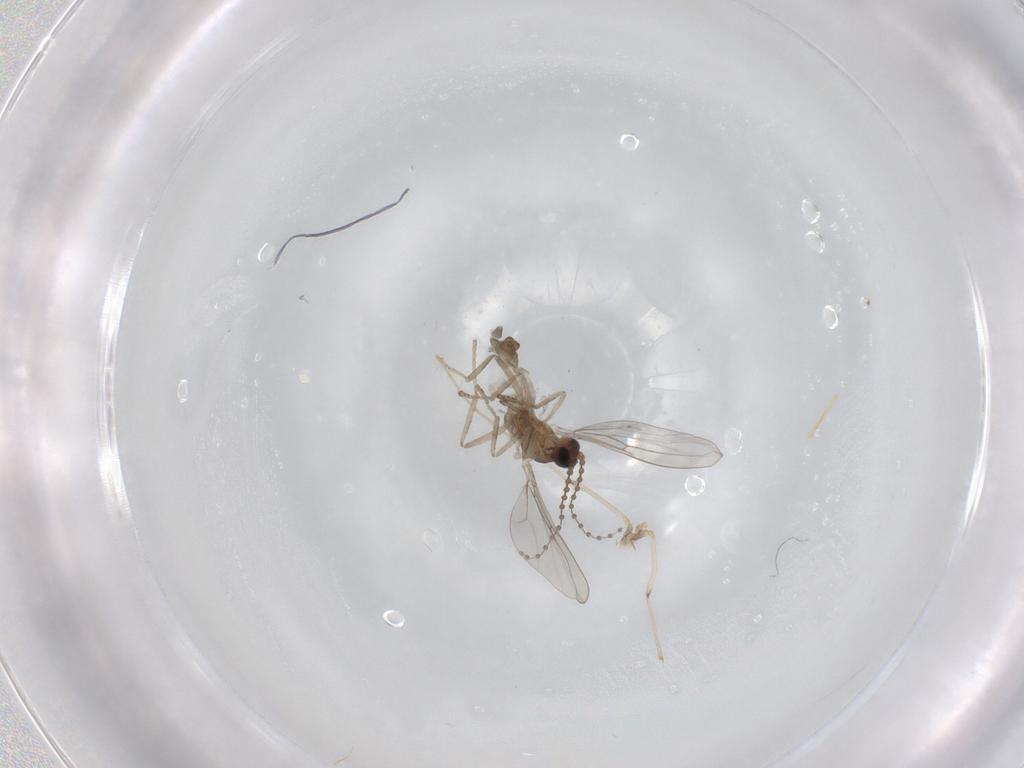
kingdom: Animalia
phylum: Arthropoda
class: Insecta
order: Diptera
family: Chironomidae
